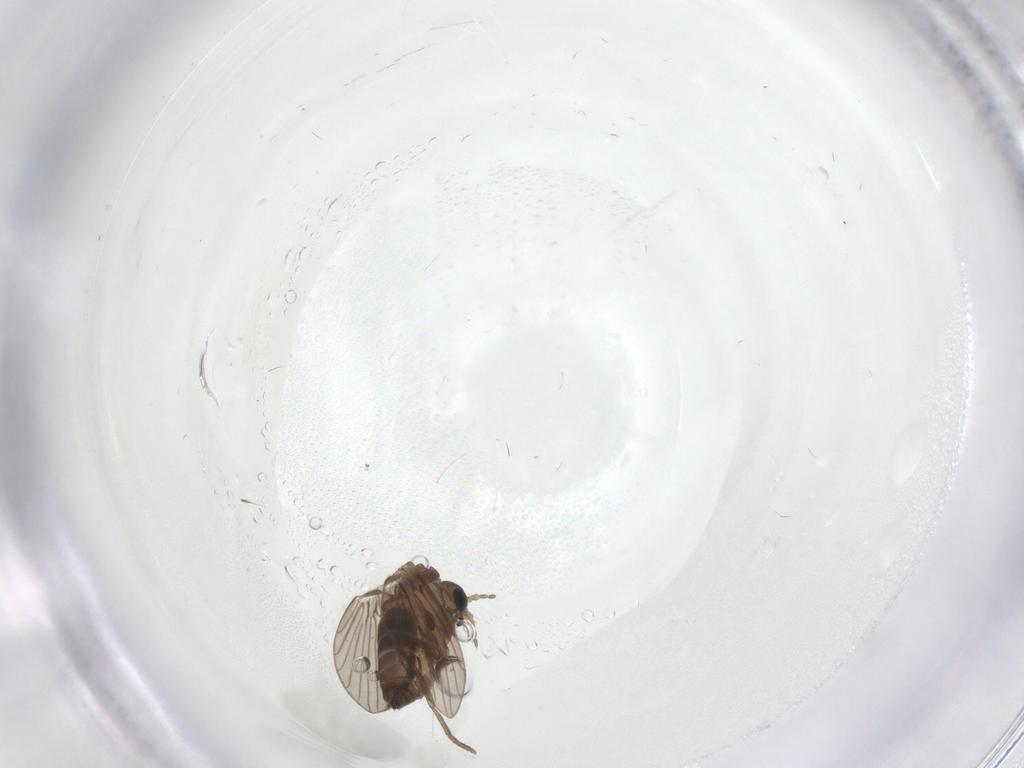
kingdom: Animalia
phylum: Arthropoda
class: Insecta
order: Diptera
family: Psychodidae
